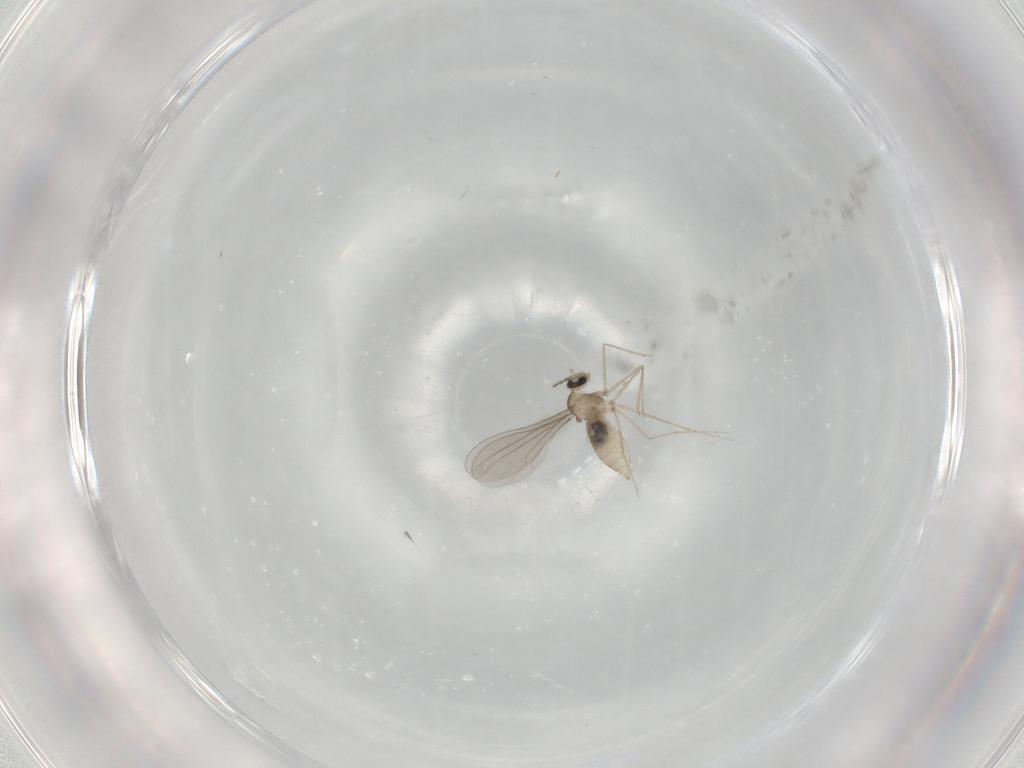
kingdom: Animalia
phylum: Arthropoda
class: Insecta
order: Diptera
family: Cecidomyiidae
